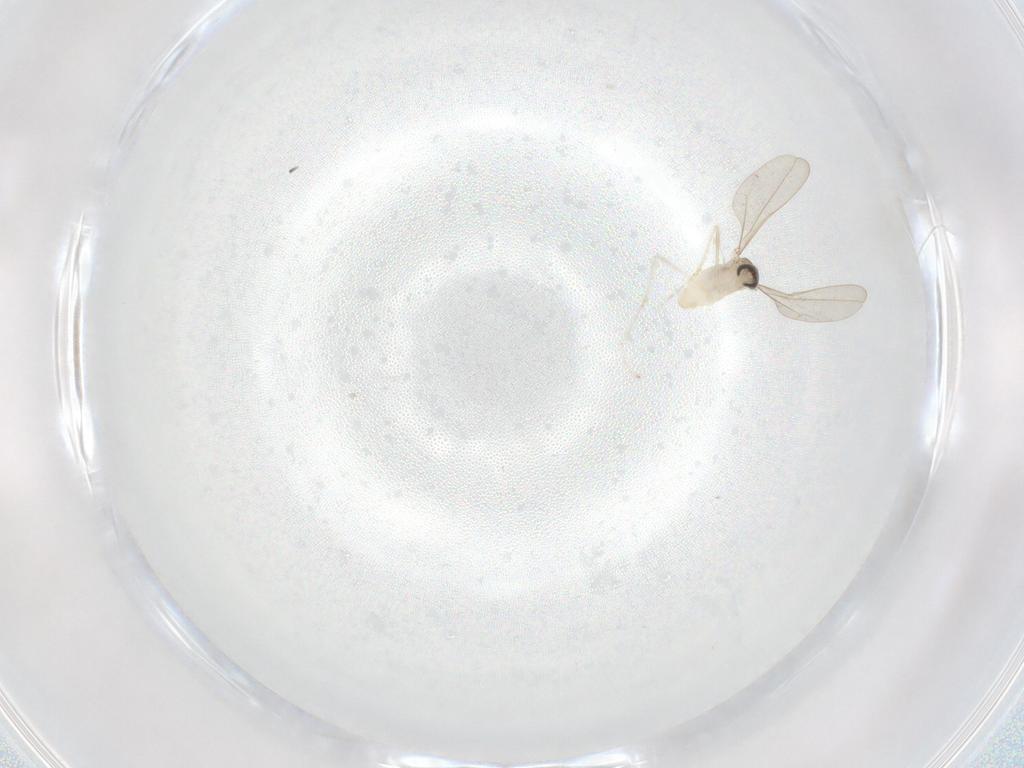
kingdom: Animalia
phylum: Arthropoda
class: Insecta
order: Diptera
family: Cecidomyiidae
